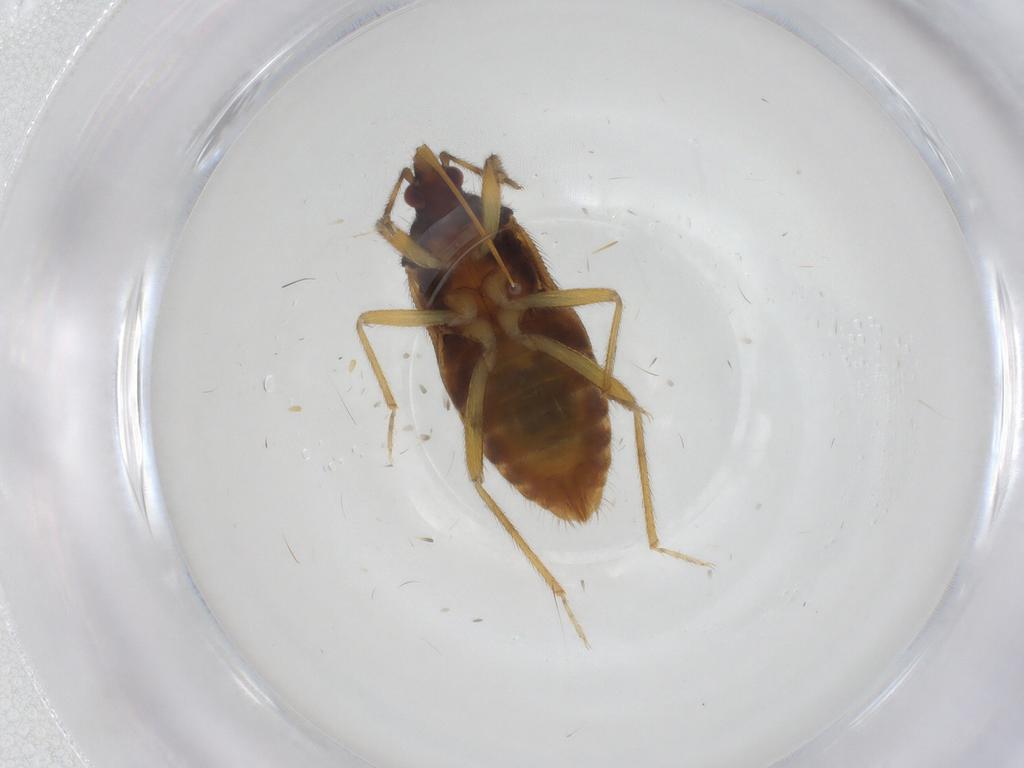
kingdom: Animalia
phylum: Arthropoda
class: Insecta
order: Hemiptera
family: Anthocoridae
